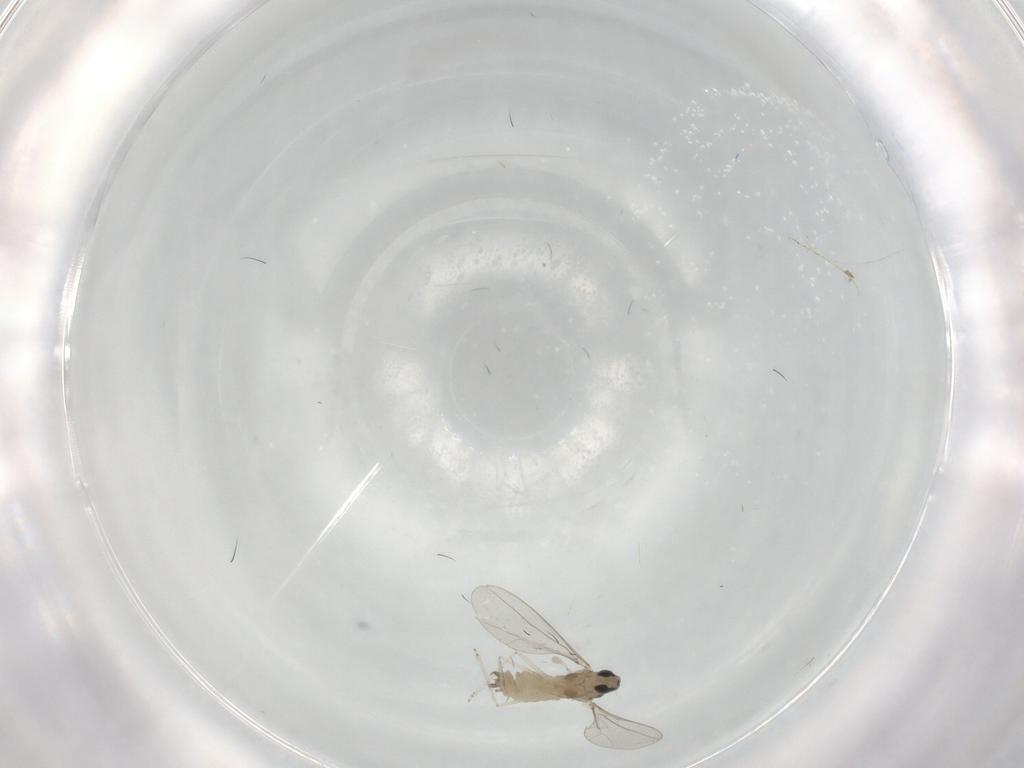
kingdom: Animalia
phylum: Arthropoda
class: Insecta
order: Diptera
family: Cecidomyiidae
